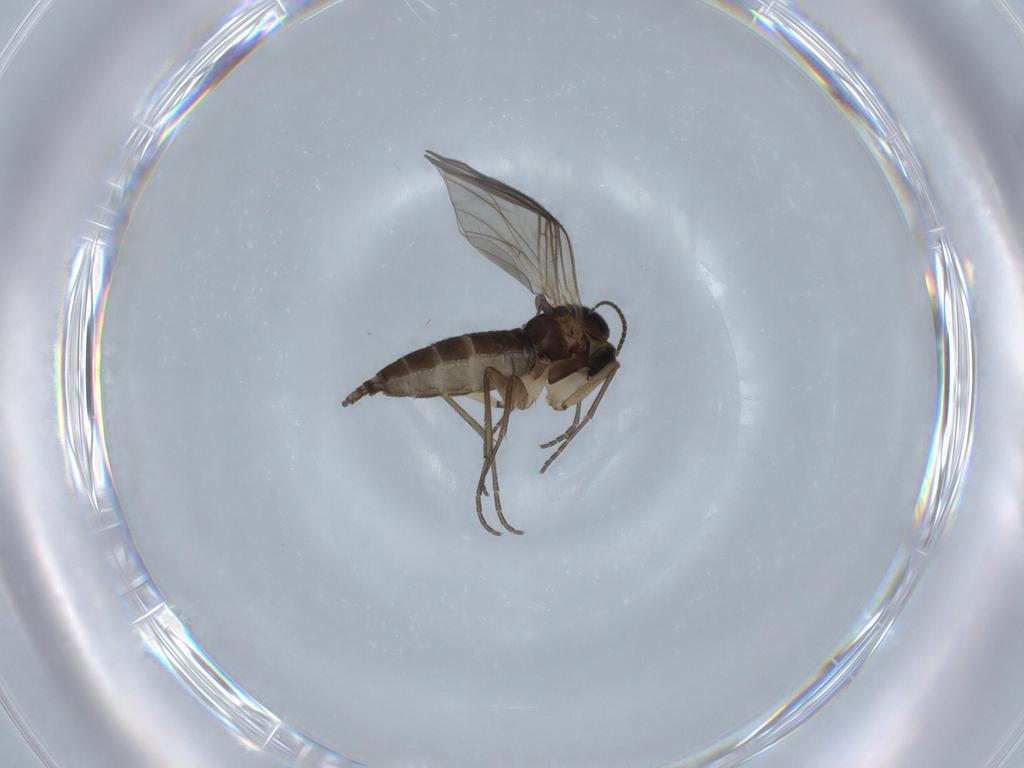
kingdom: Animalia
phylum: Arthropoda
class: Insecta
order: Diptera
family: Sciaridae
